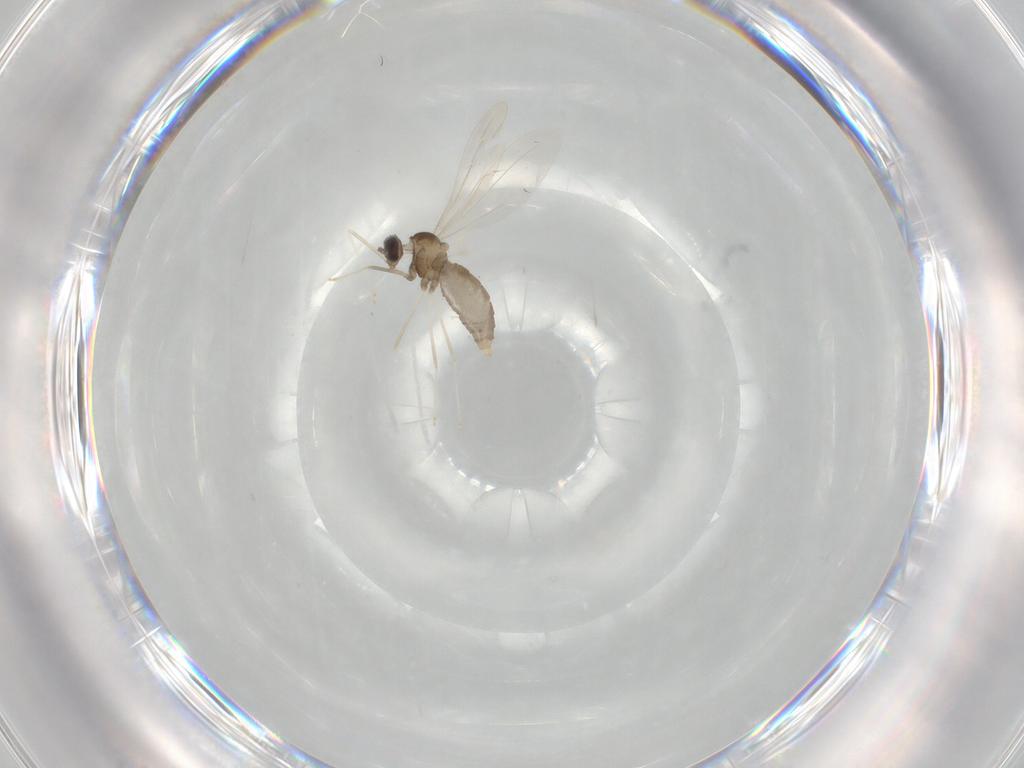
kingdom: Animalia
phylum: Arthropoda
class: Insecta
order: Diptera
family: Cecidomyiidae
